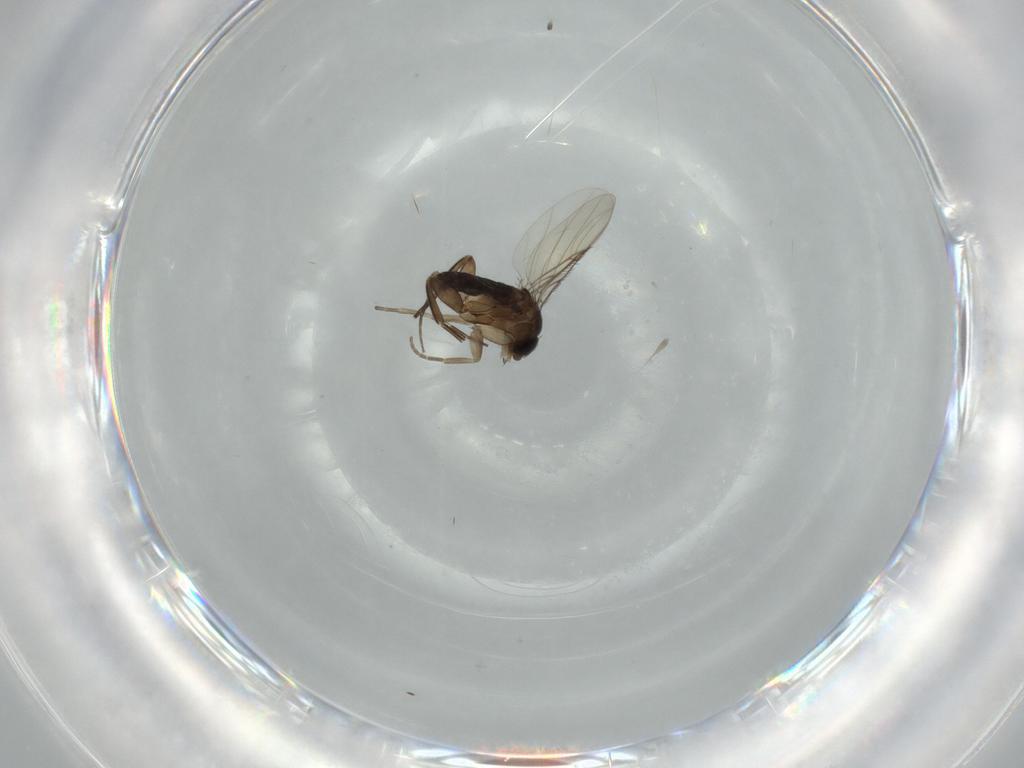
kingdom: Animalia
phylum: Arthropoda
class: Insecta
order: Diptera
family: Phoridae
